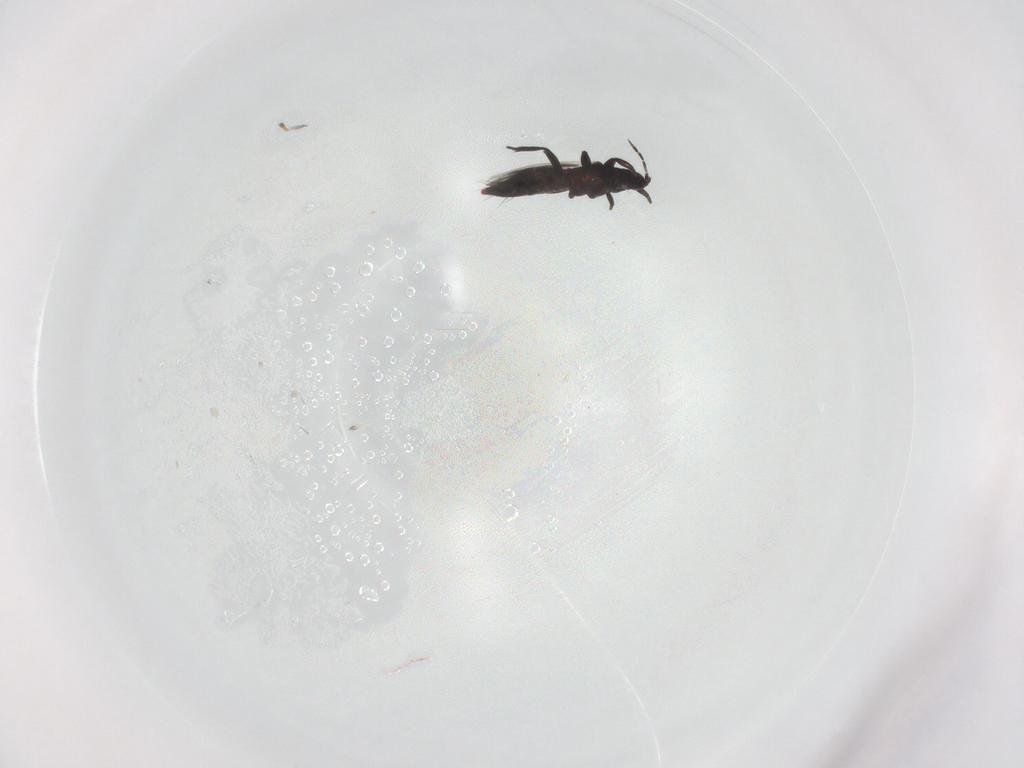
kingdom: Animalia
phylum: Arthropoda
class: Insecta
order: Thysanoptera
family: Aeolothripidae
